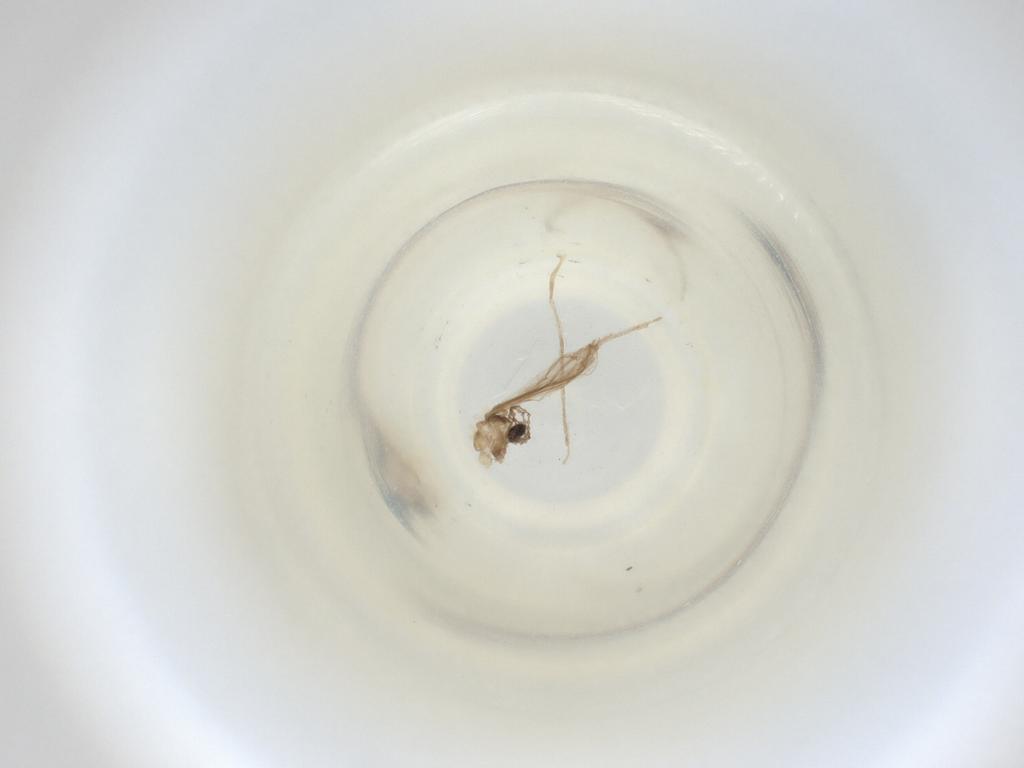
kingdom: Animalia
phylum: Arthropoda
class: Insecta
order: Diptera
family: Cecidomyiidae
